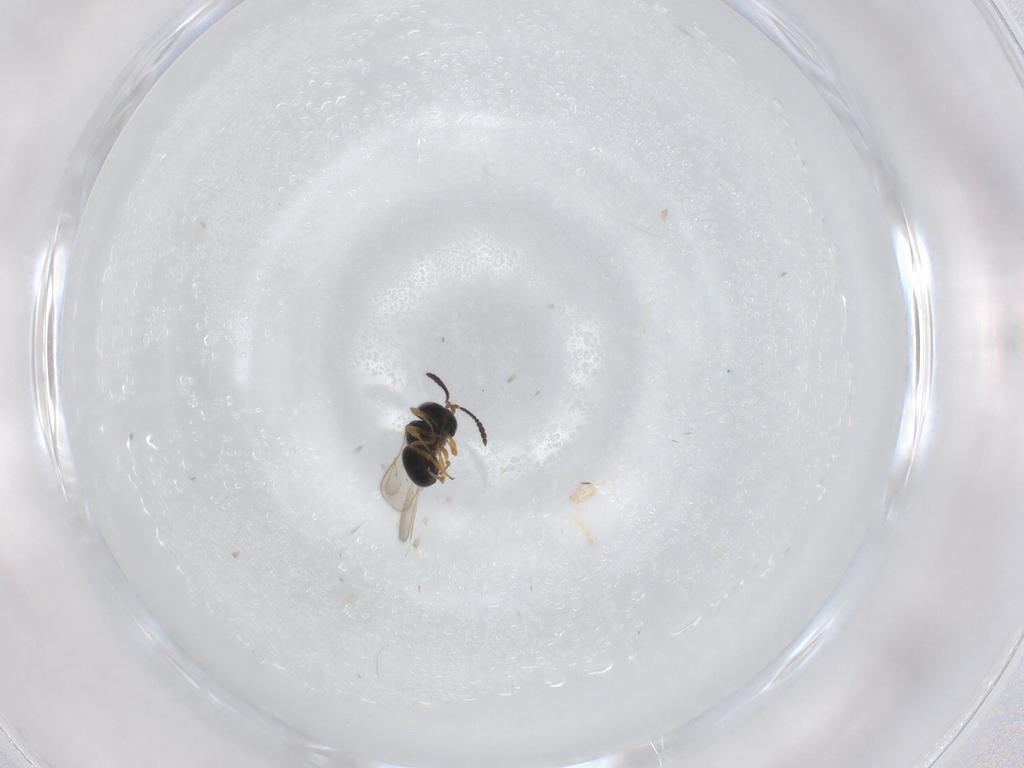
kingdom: Animalia
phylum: Arthropoda
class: Insecta
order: Hymenoptera
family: Scelionidae
